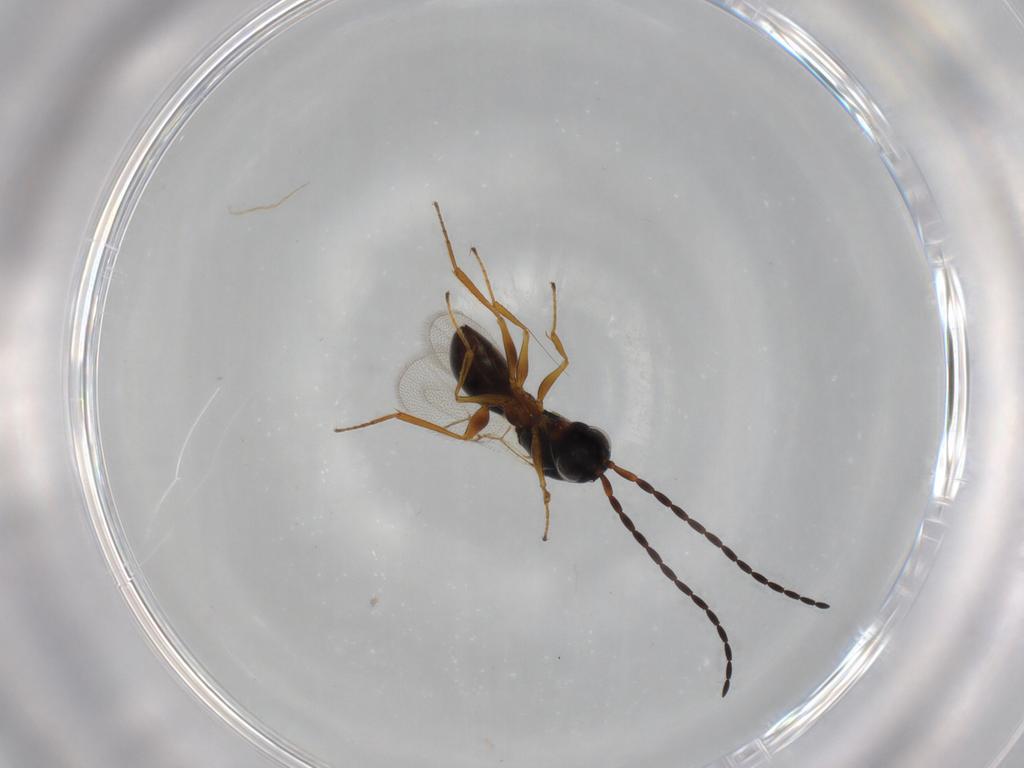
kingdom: Animalia
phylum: Arthropoda
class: Insecta
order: Hymenoptera
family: Figitidae
